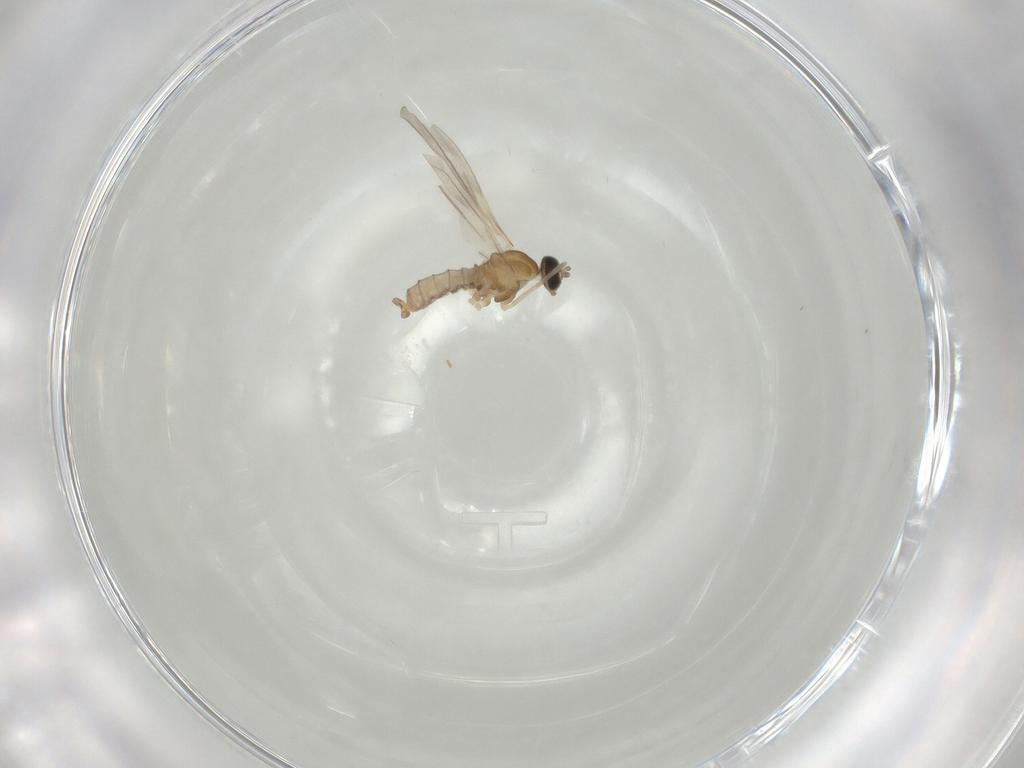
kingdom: Animalia
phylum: Arthropoda
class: Insecta
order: Diptera
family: Cecidomyiidae
